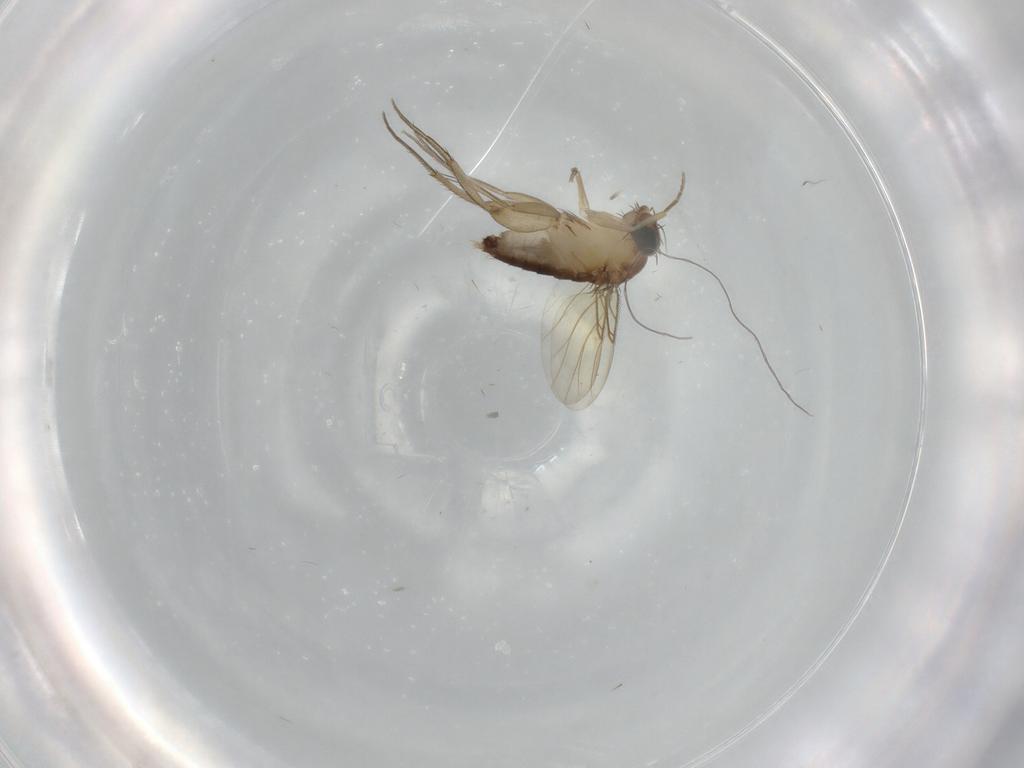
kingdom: Animalia
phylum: Arthropoda
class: Insecta
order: Diptera
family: Phoridae
